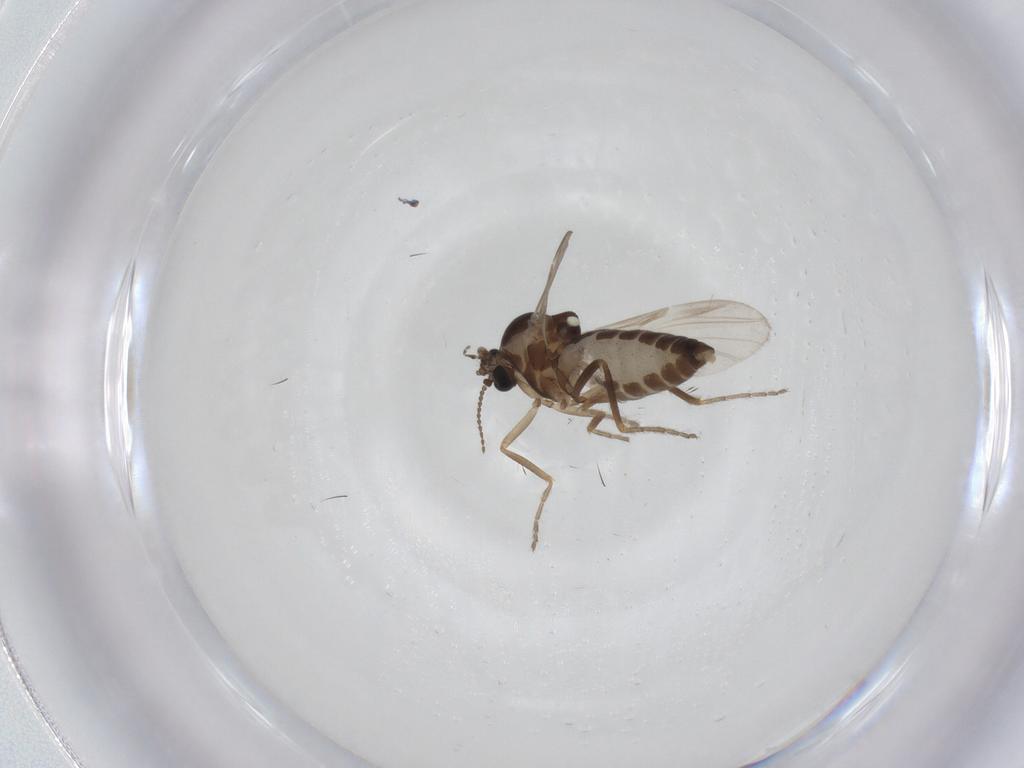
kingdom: Animalia
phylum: Arthropoda
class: Insecta
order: Diptera
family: Ceratopogonidae
